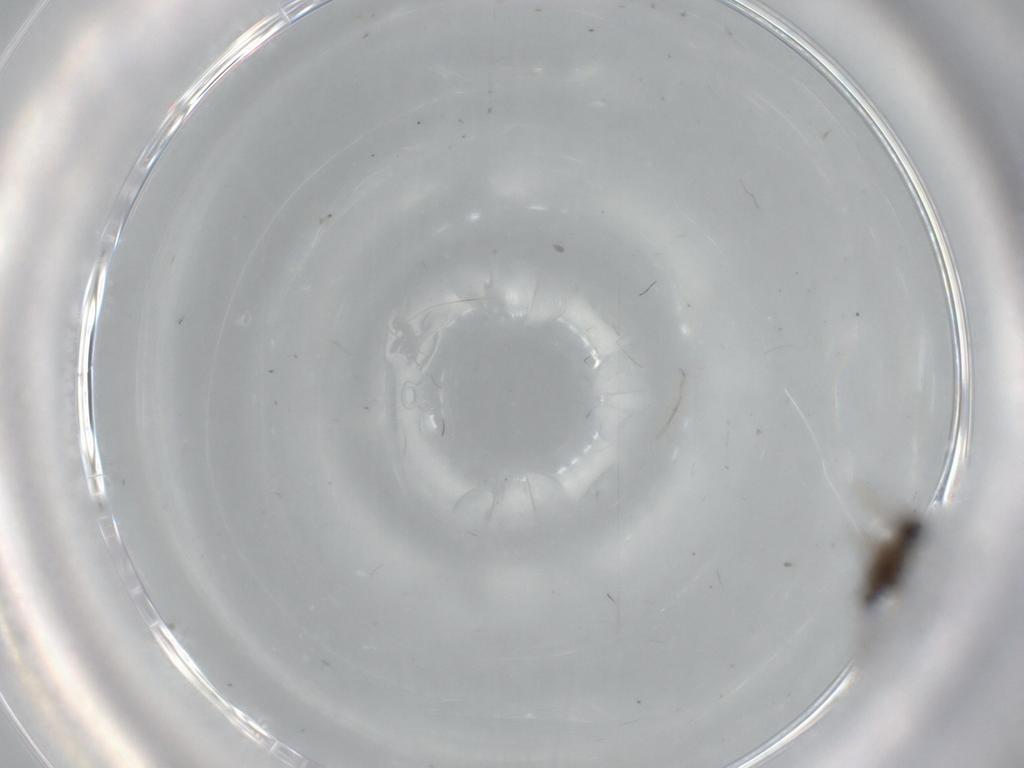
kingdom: Animalia
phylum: Arthropoda
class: Insecta
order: Diptera
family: Cecidomyiidae
